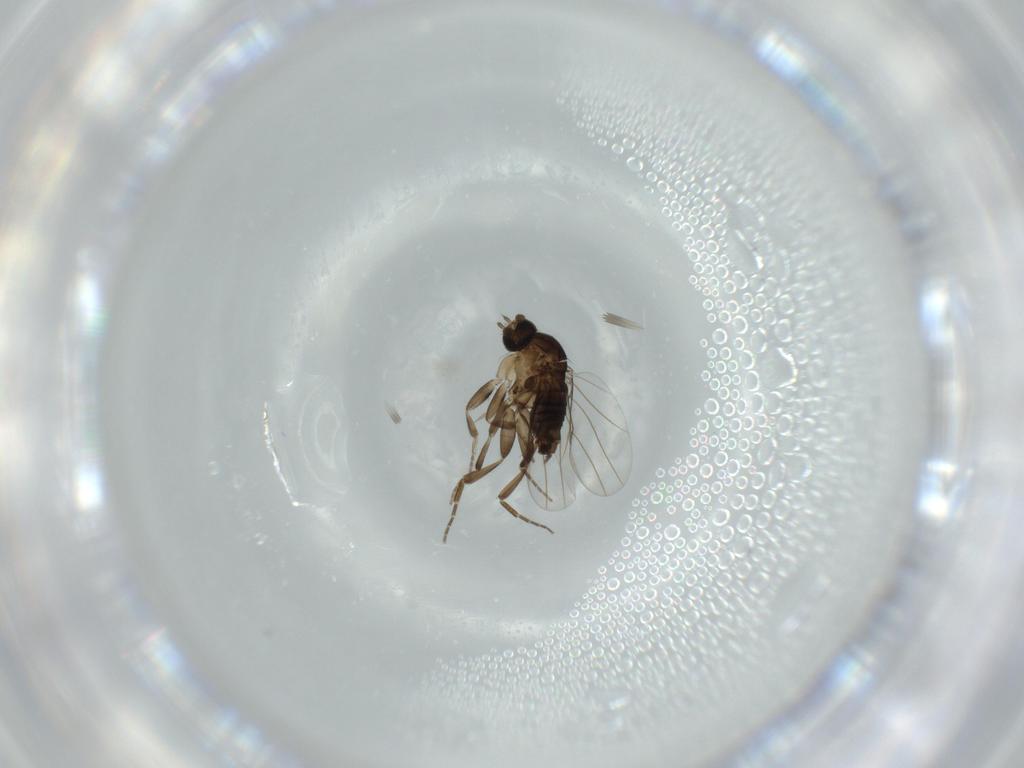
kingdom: Animalia
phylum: Arthropoda
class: Insecta
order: Diptera
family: Phoridae
